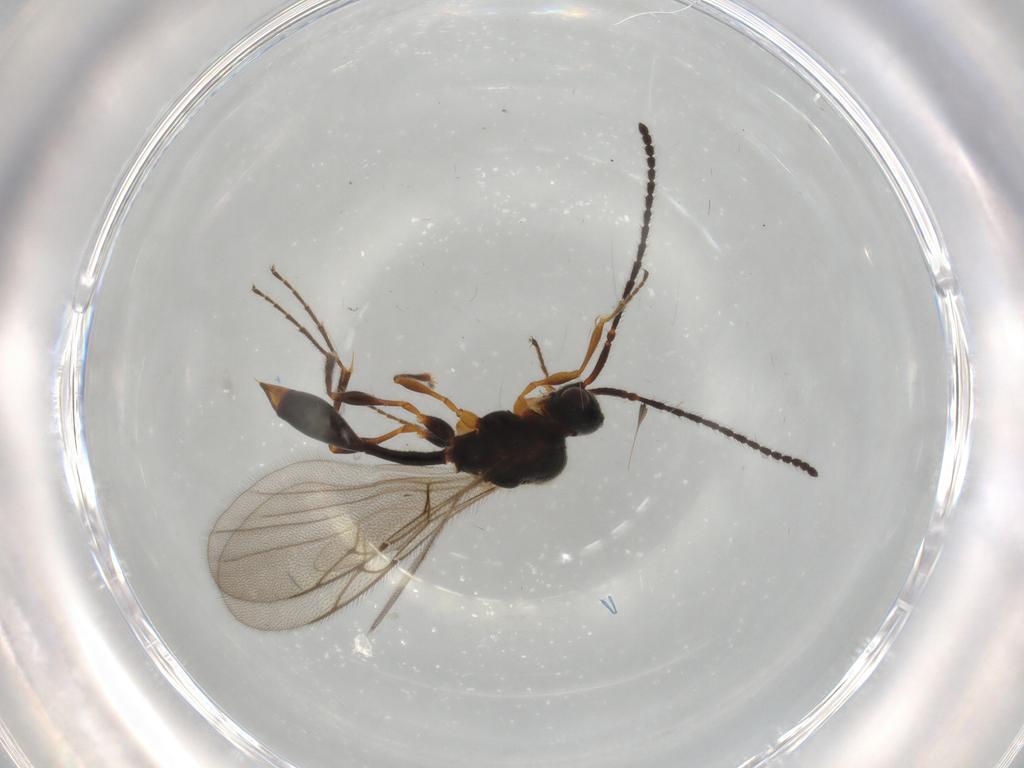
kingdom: Animalia
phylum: Arthropoda
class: Insecta
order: Hymenoptera
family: Diapriidae
